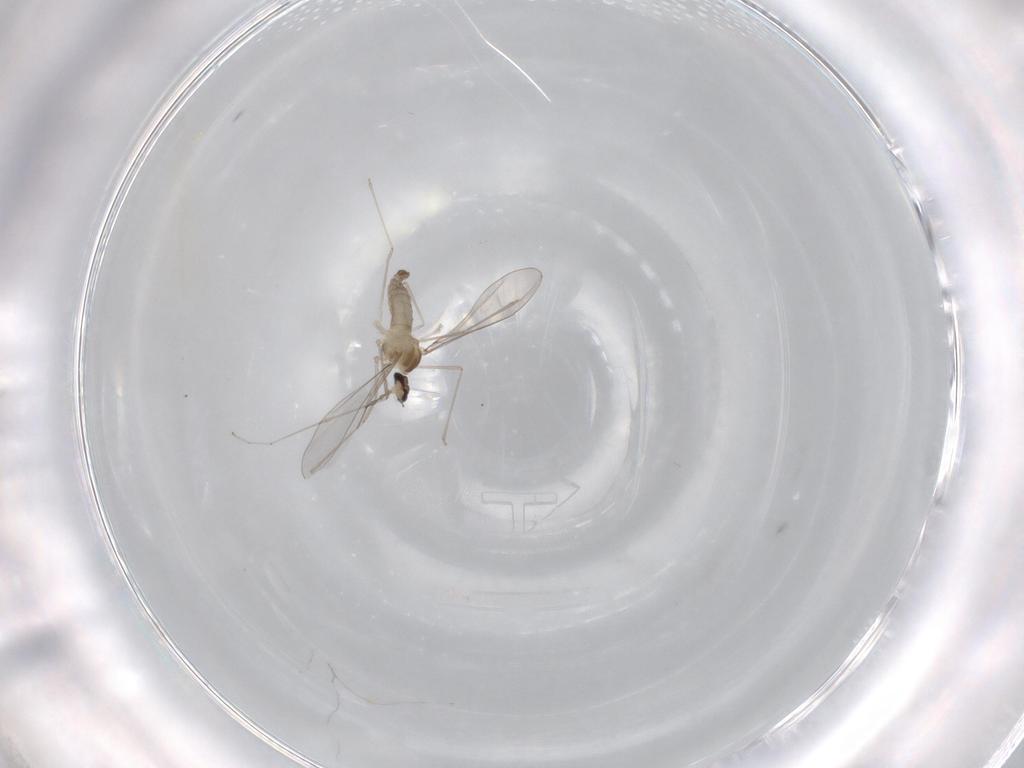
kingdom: Animalia
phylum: Arthropoda
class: Insecta
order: Diptera
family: Cecidomyiidae
